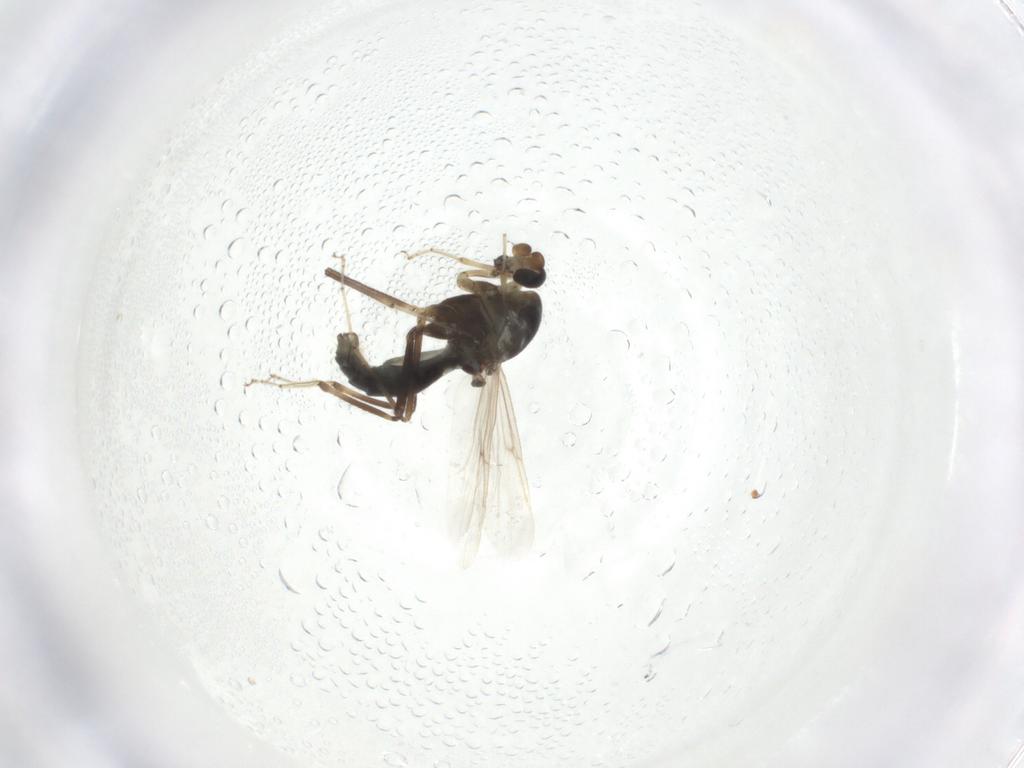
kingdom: Animalia
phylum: Arthropoda
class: Insecta
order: Diptera
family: Ceratopogonidae
